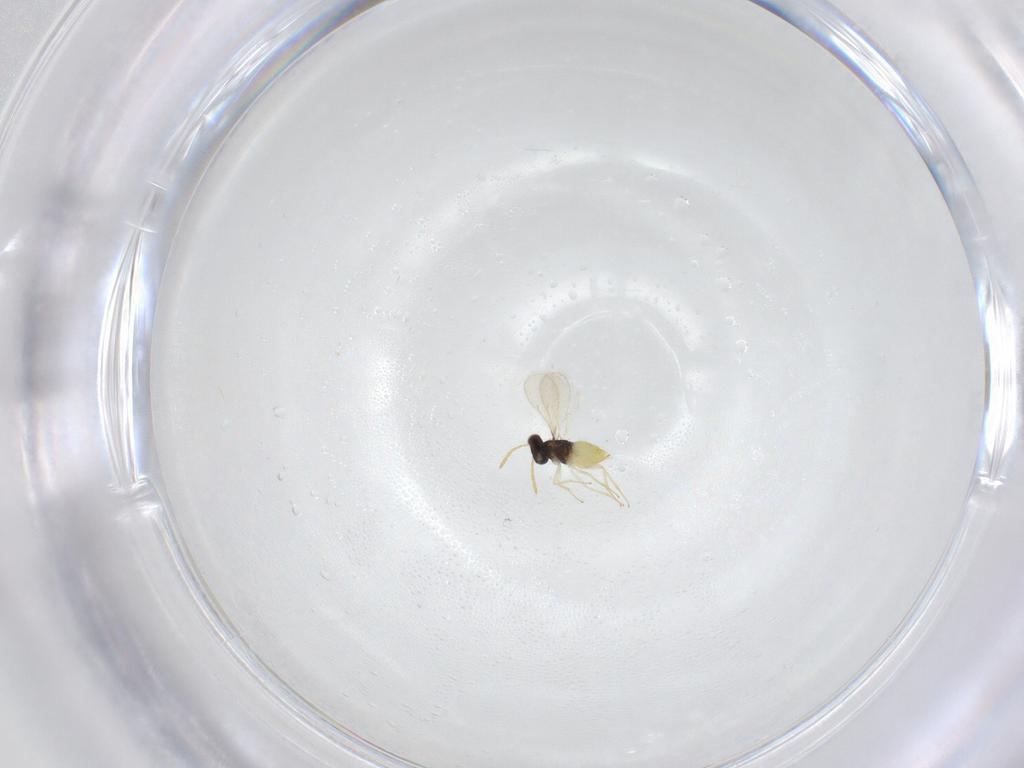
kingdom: Animalia
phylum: Arthropoda
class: Insecta
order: Hymenoptera
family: Aphelinidae
